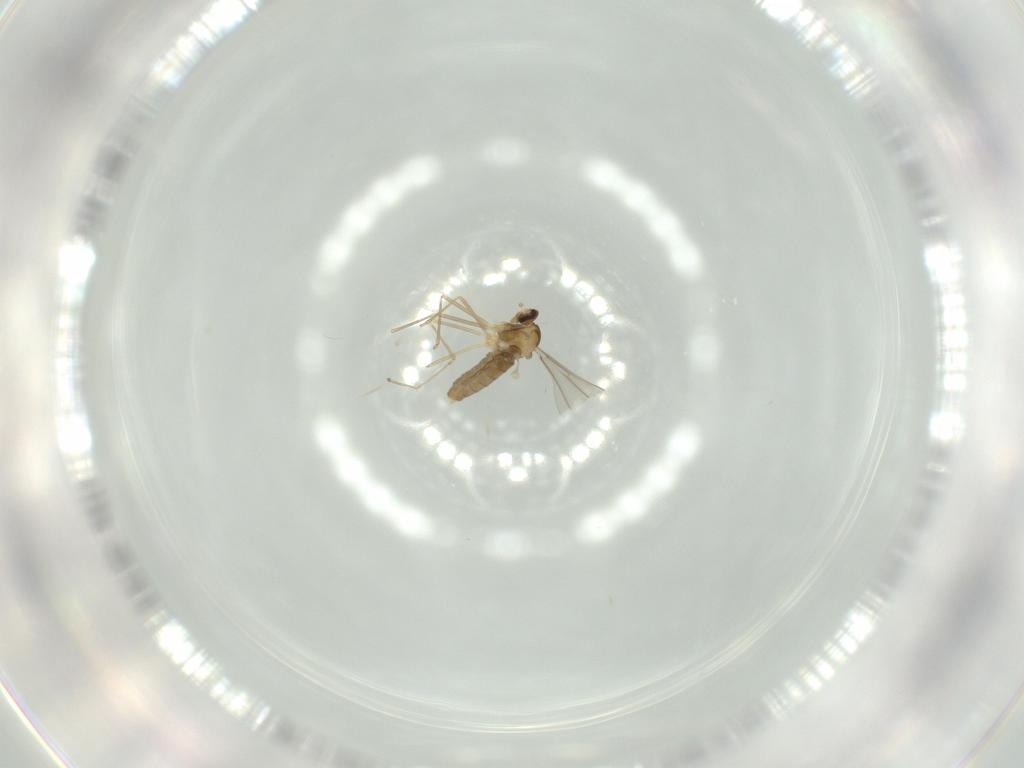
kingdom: Animalia
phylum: Arthropoda
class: Insecta
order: Diptera
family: Cecidomyiidae
